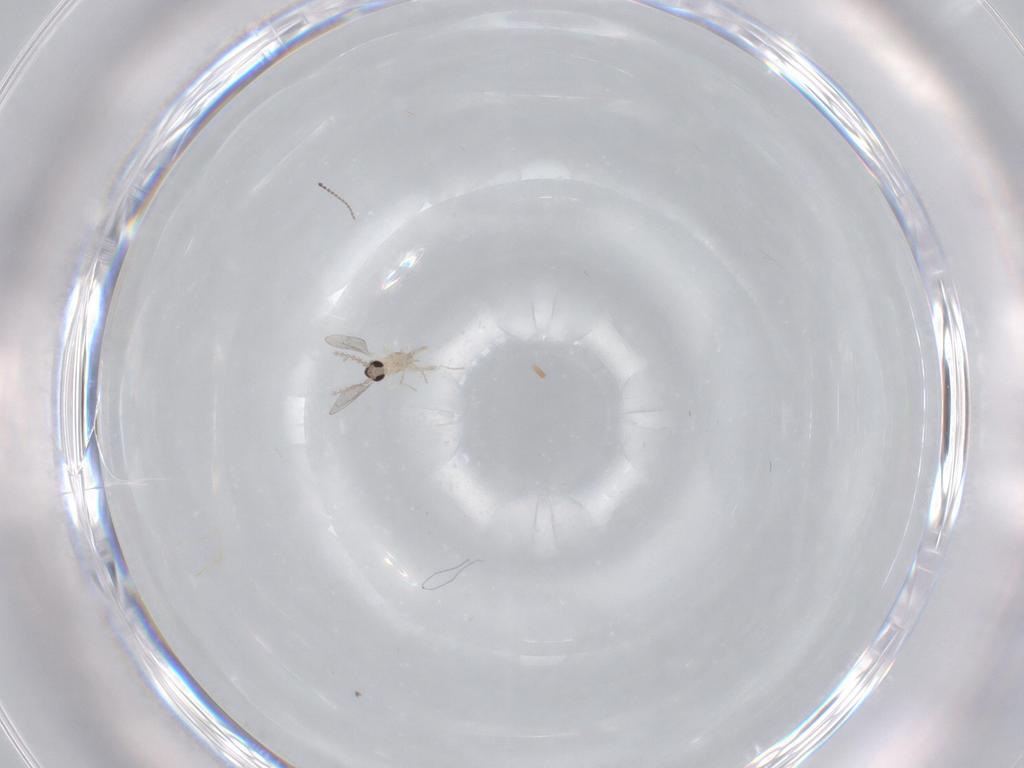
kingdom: Animalia
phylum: Arthropoda
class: Insecta
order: Diptera
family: Cecidomyiidae
